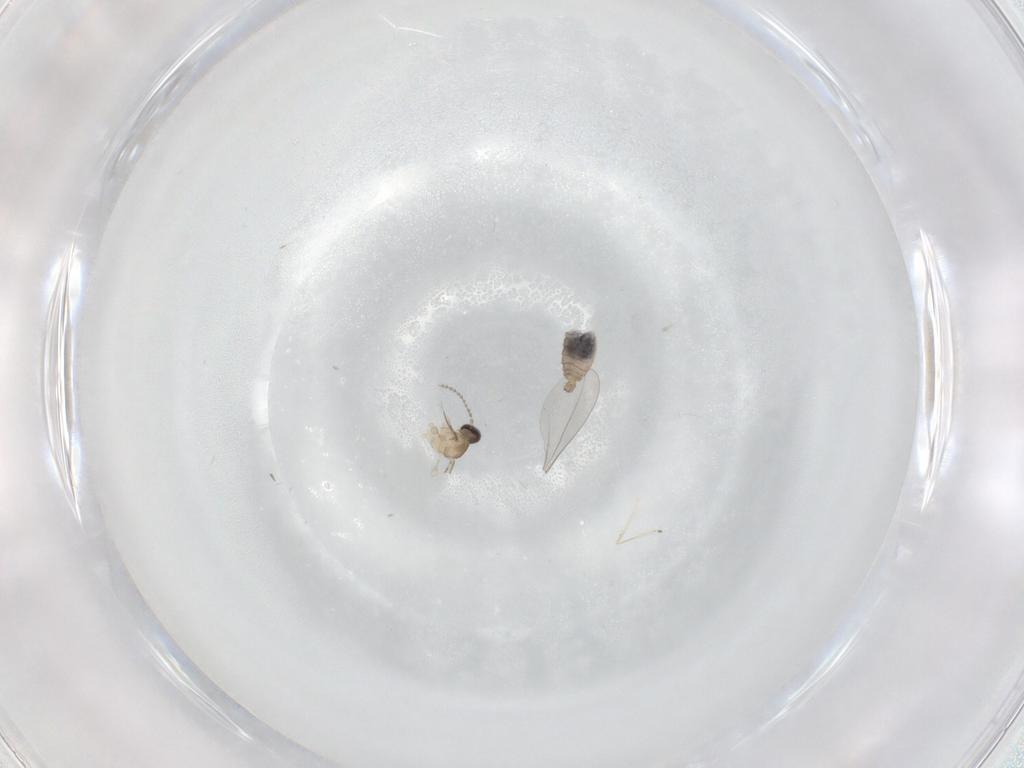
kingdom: Animalia
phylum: Arthropoda
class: Insecta
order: Diptera
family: Cecidomyiidae
